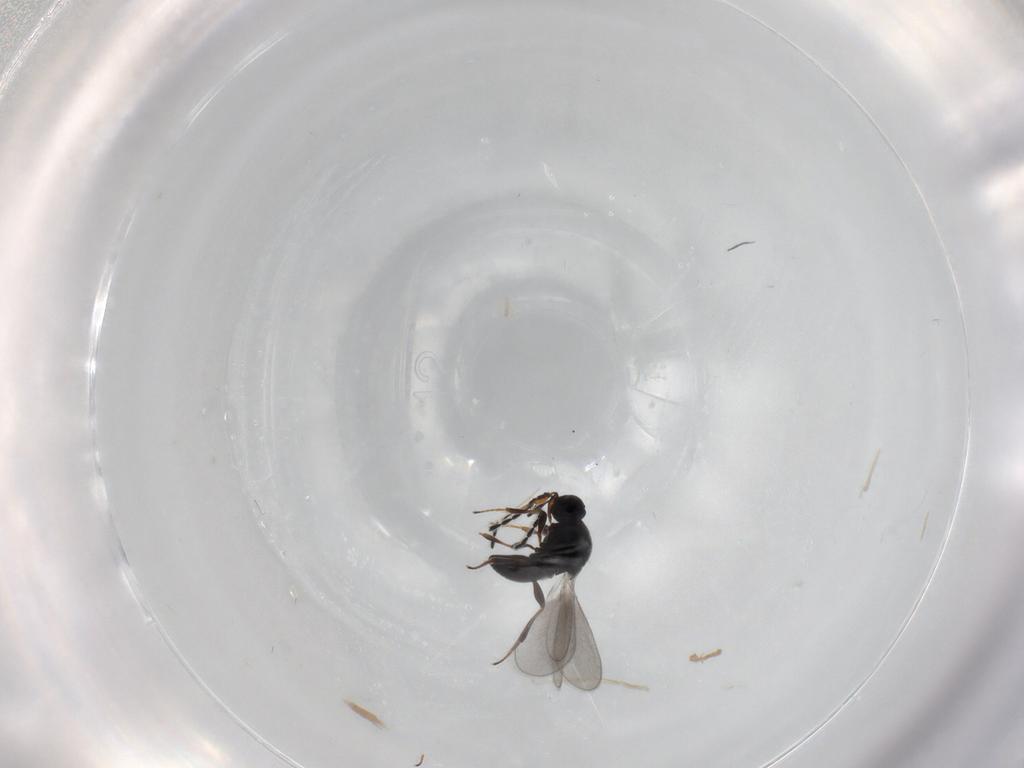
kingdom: Animalia
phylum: Arthropoda
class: Insecta
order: Hymenoptera
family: Platygastridae
